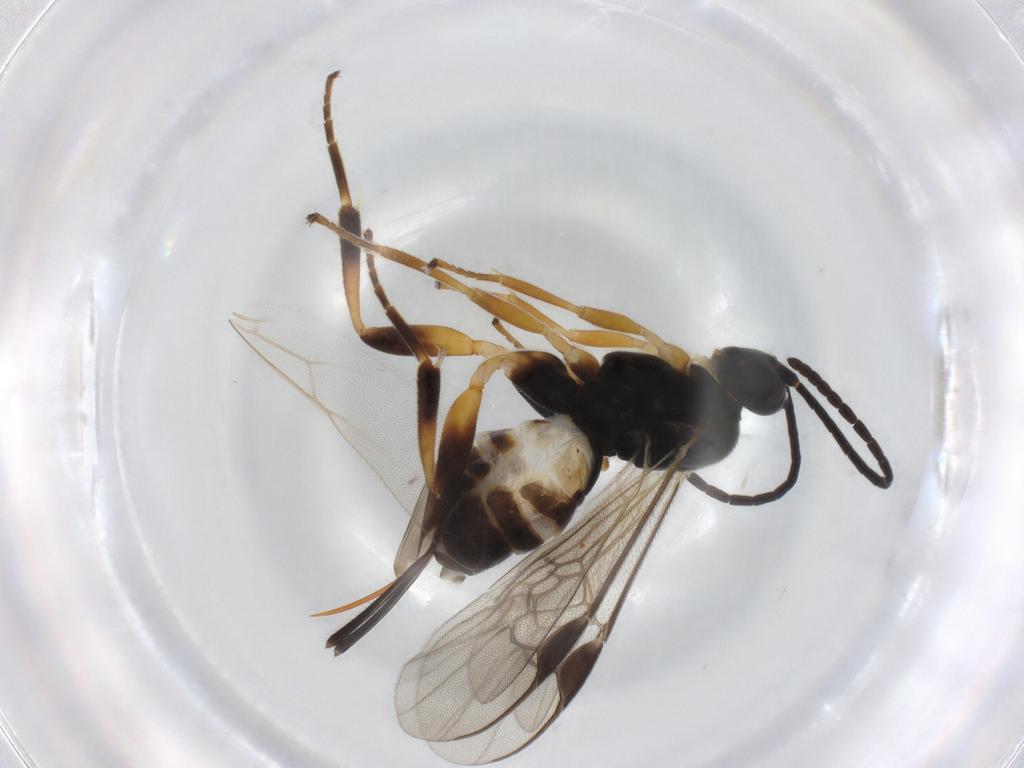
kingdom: Animalia
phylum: Arthropoda
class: Insecta
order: Hymenoptera
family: Braconidae
